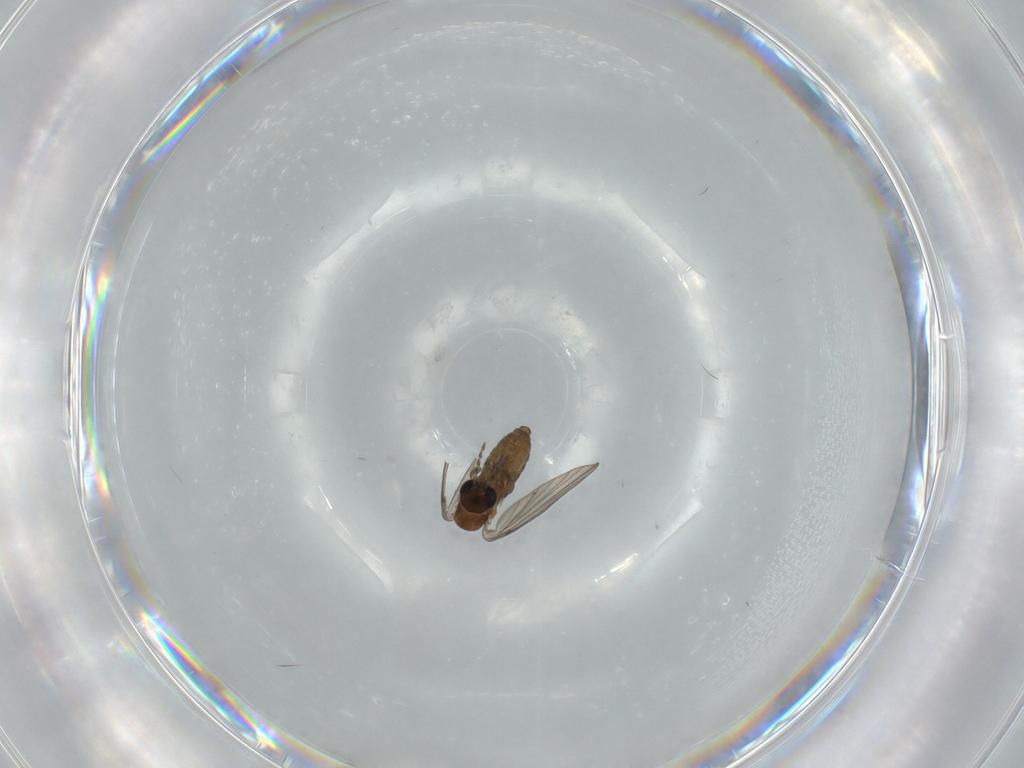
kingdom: Animalia
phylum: Arthropoda
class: Insecta
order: Diptera
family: Psychodidae
